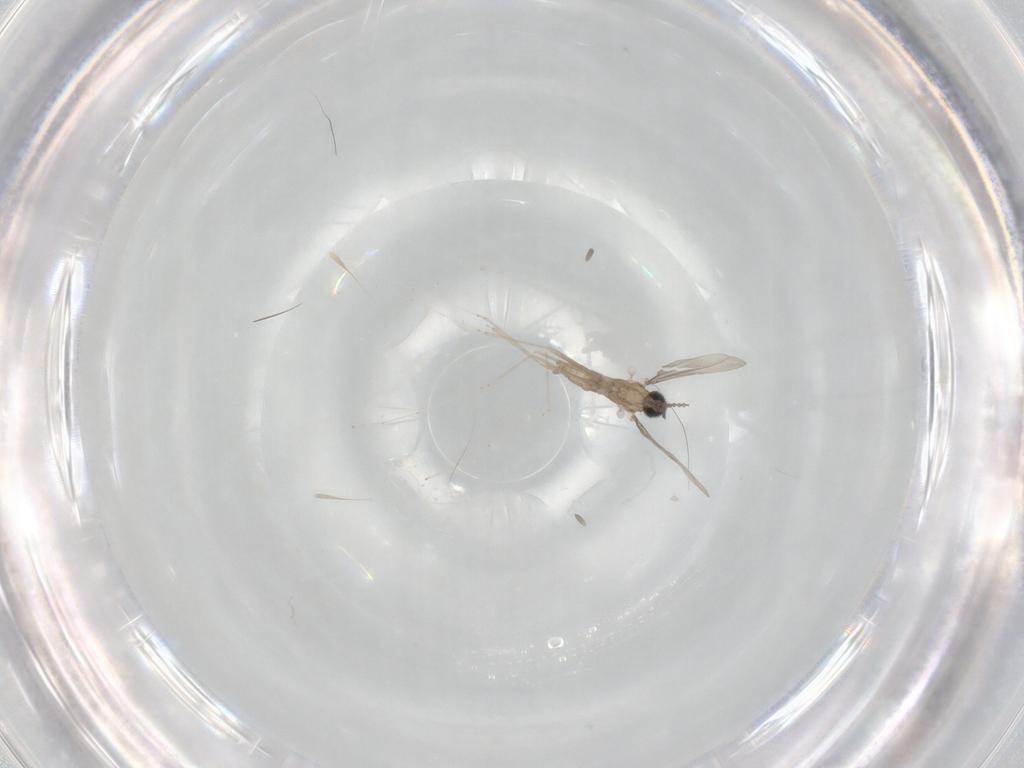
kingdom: Animalia
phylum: Arthropoda
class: Insecta
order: Diptera
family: Cecidomyiidae
